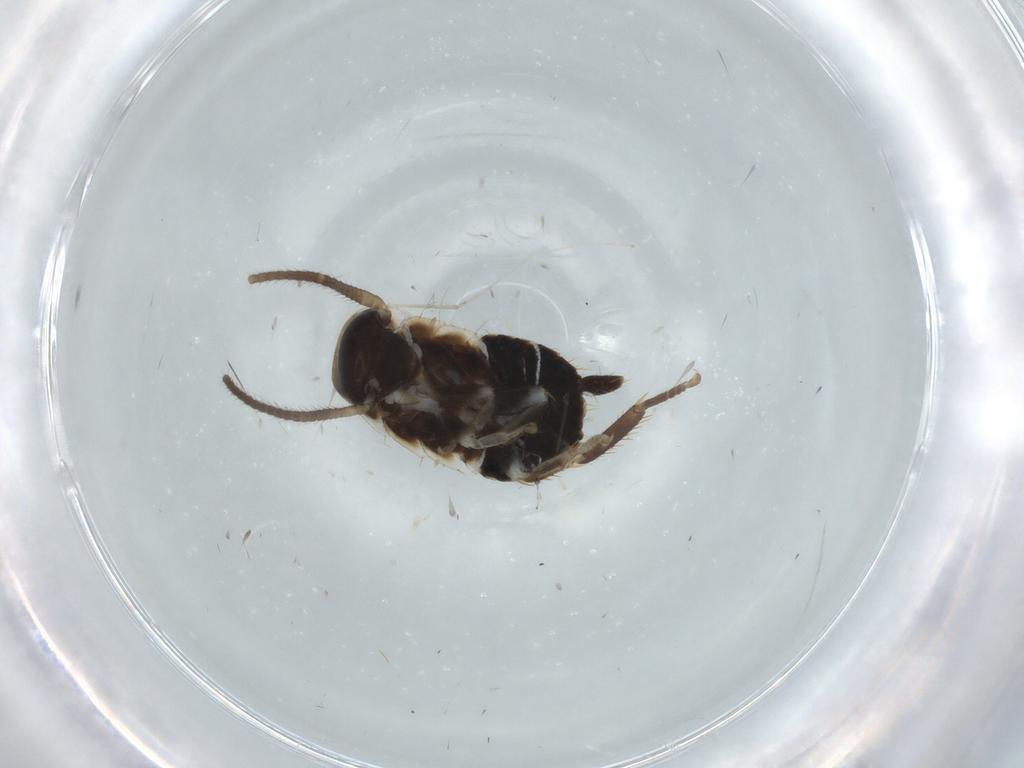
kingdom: Animalia
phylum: Arthropoda
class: Insecta
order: Blattodea
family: Ectobiidae
